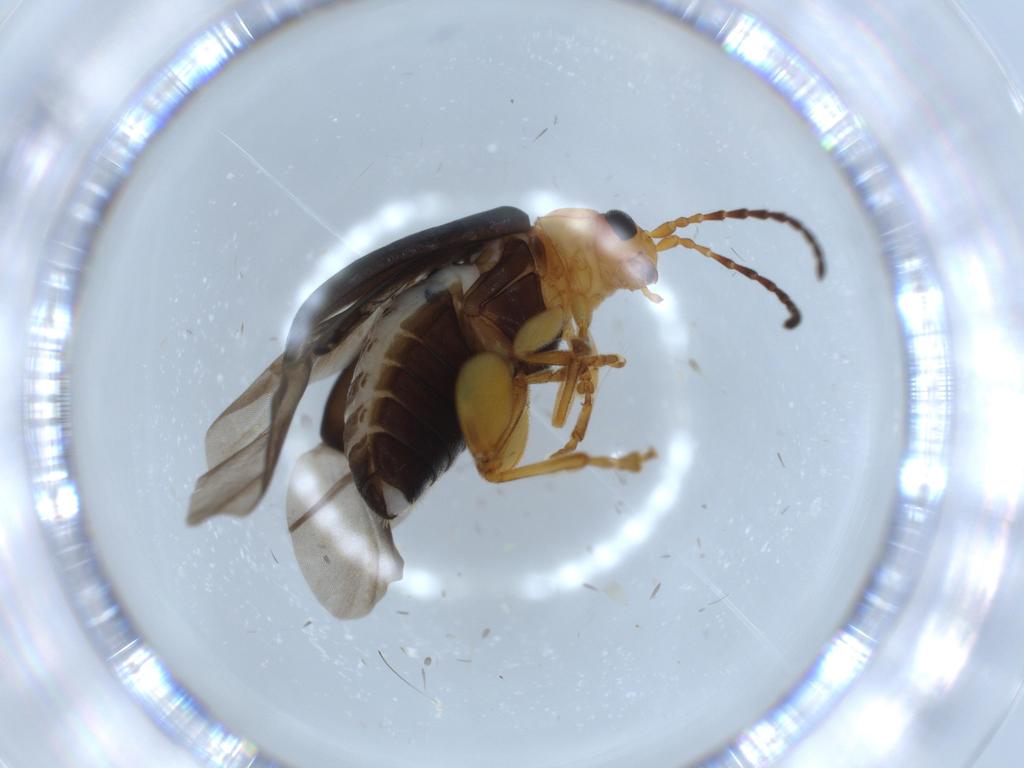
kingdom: Animalia
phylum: Arthropoda
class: Insecta
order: Coleoptera
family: Chrysomelidae
